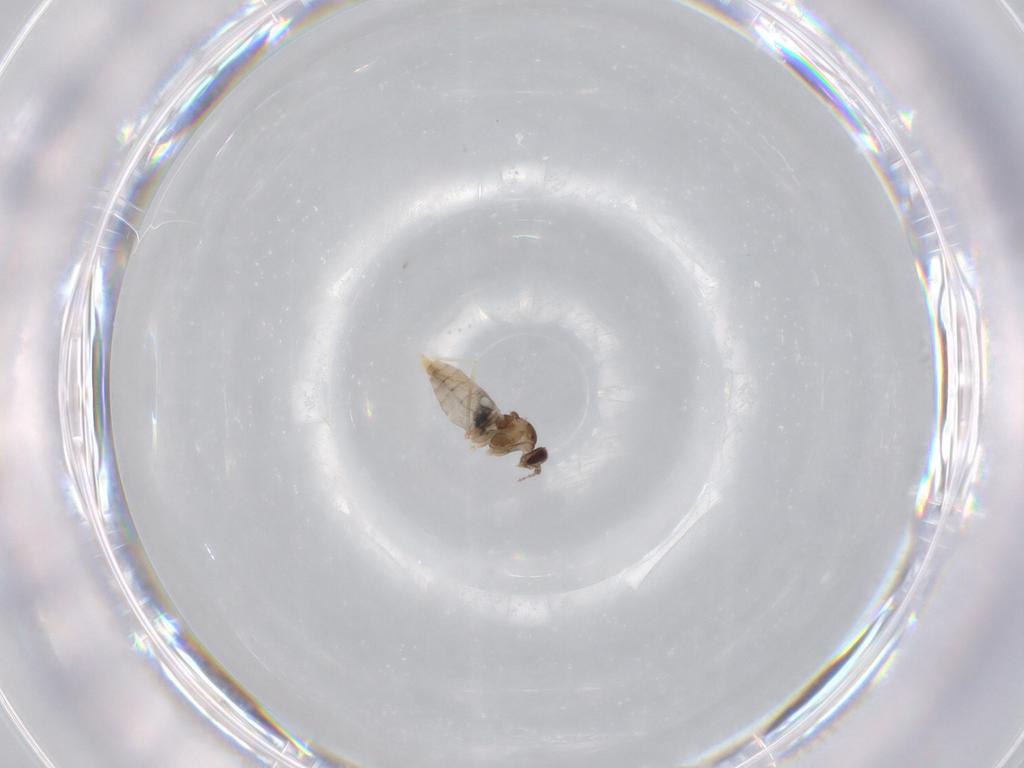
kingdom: Animalia
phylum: Arthropoda
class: Insecta
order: Diptera
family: Cecidomyiidae
